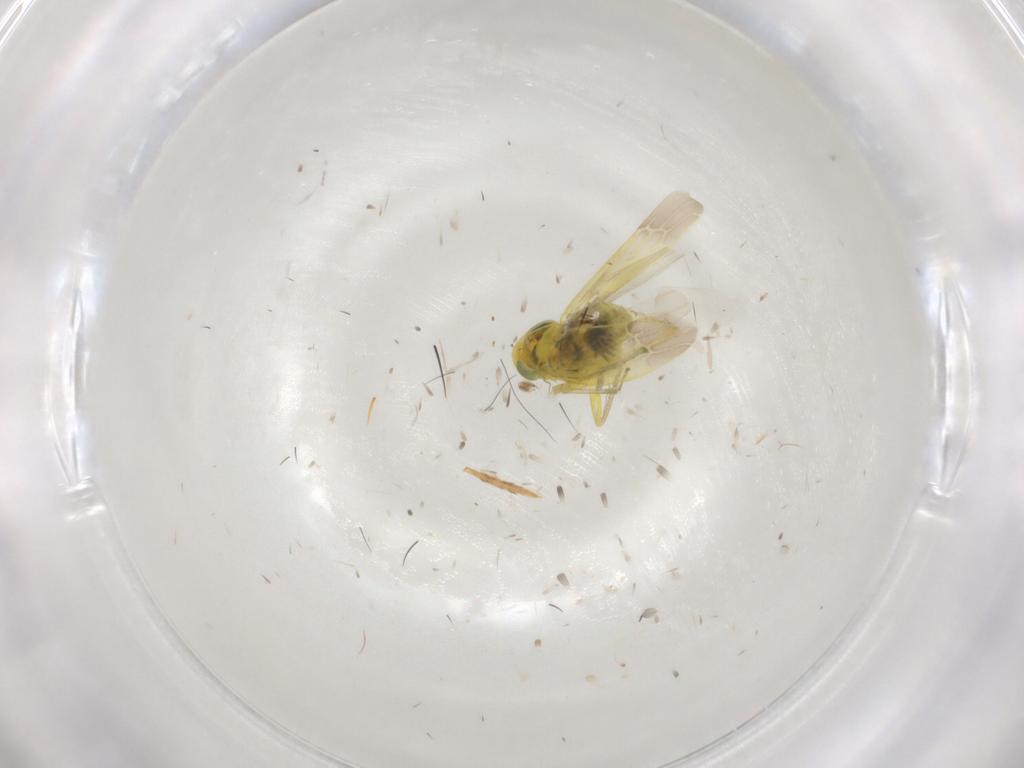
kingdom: Animalia
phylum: Arthropoda
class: Insecta
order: Hemiptera
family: Cicadellidae
